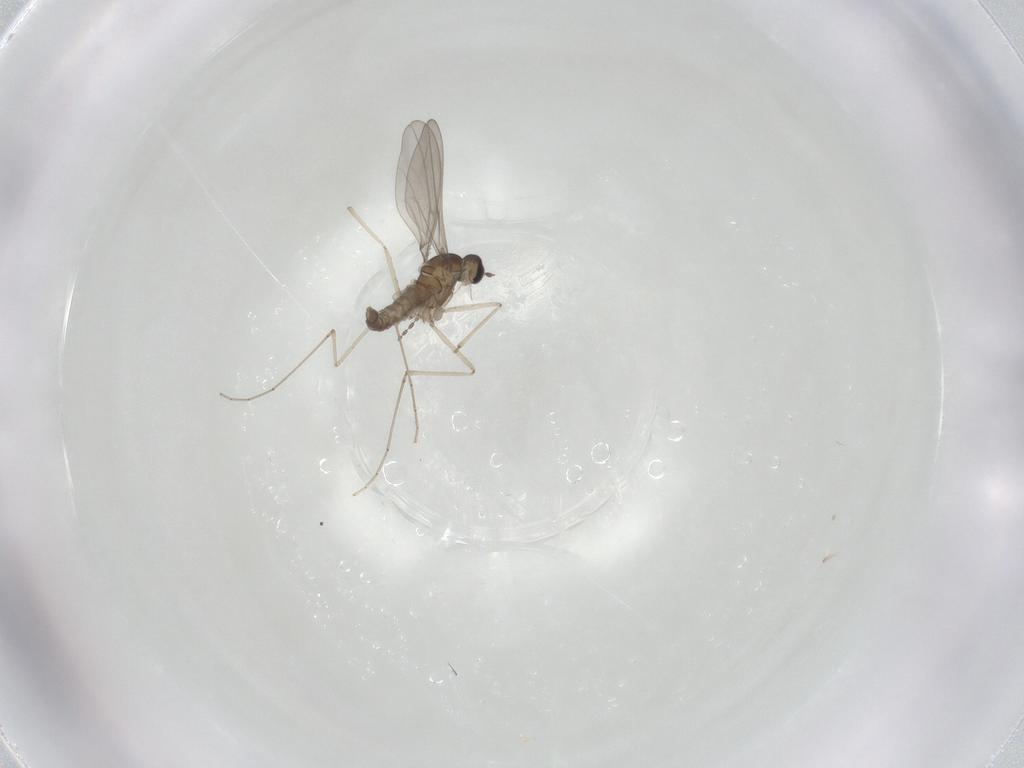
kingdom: Animalia
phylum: Arthropoda
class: Insecta
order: Diptera
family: Cecidomyiidae
